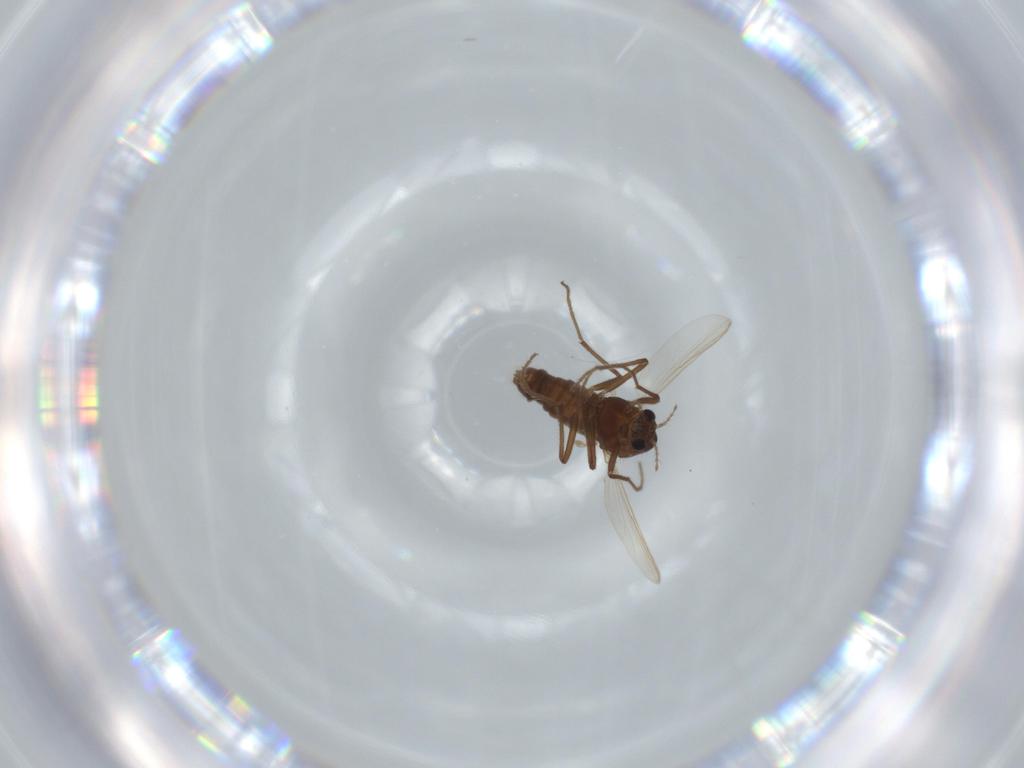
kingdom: Animalia
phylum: Arthropoda
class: Insecta
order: Diptera
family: Chironomidae
